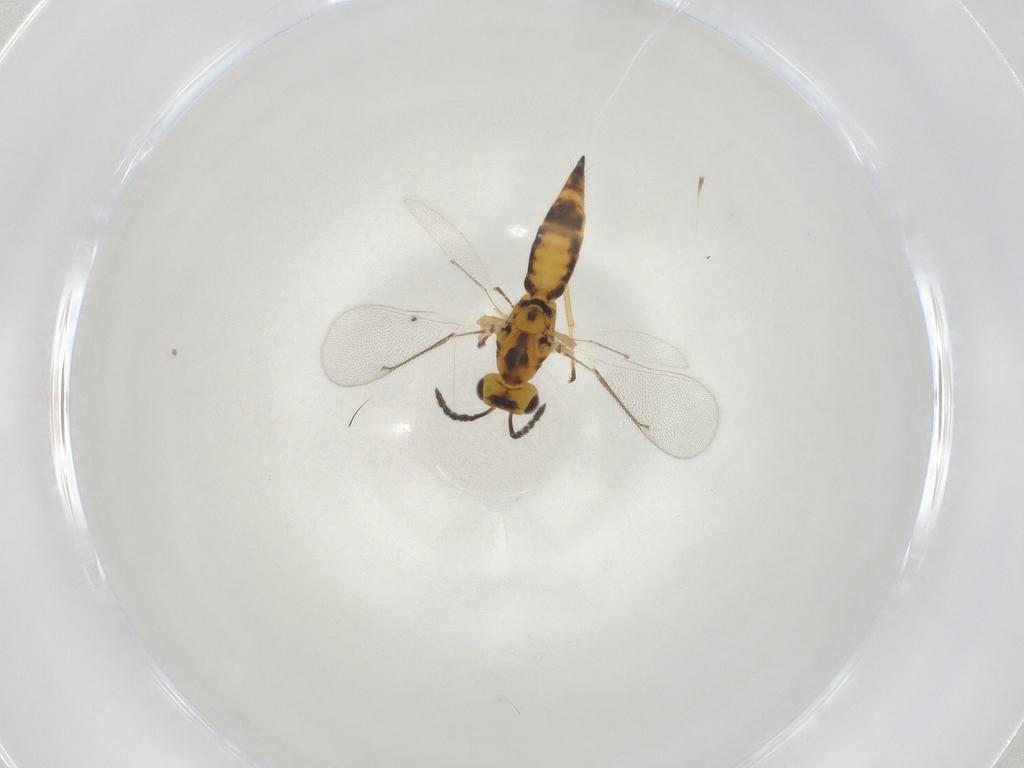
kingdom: Animalia
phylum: Arthropoda
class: Insecta
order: Hymenoptera
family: Eulophidae
